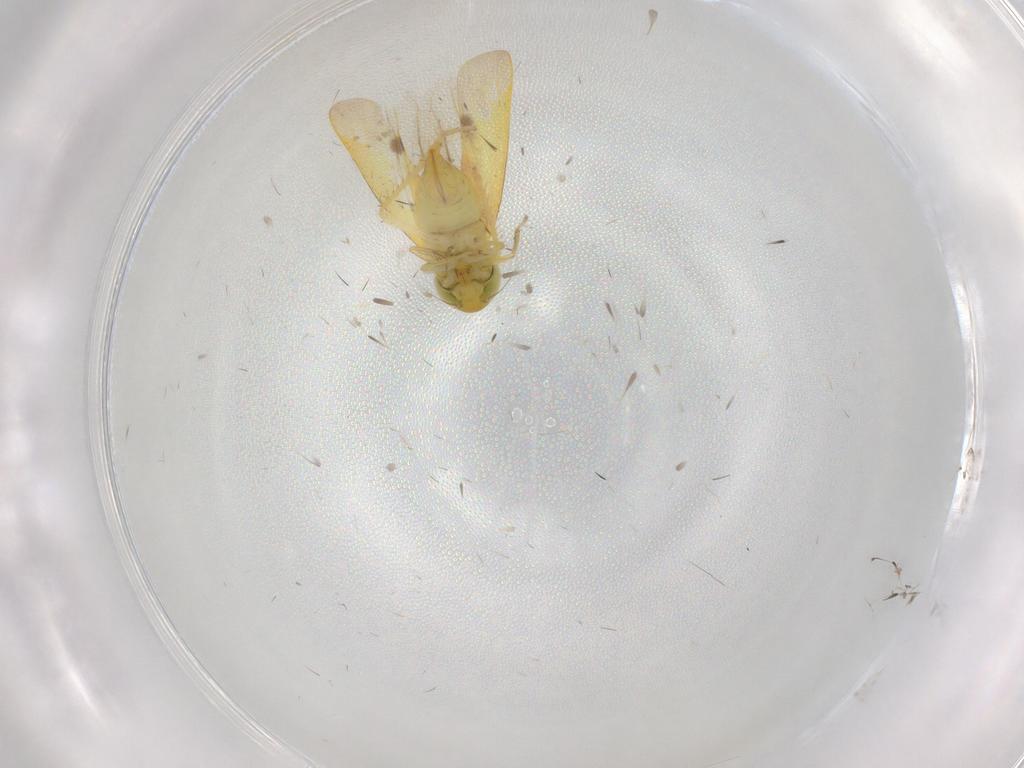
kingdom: Animalia
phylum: Arthropoda
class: Insecta
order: Hemiptera
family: Cicadellidae
